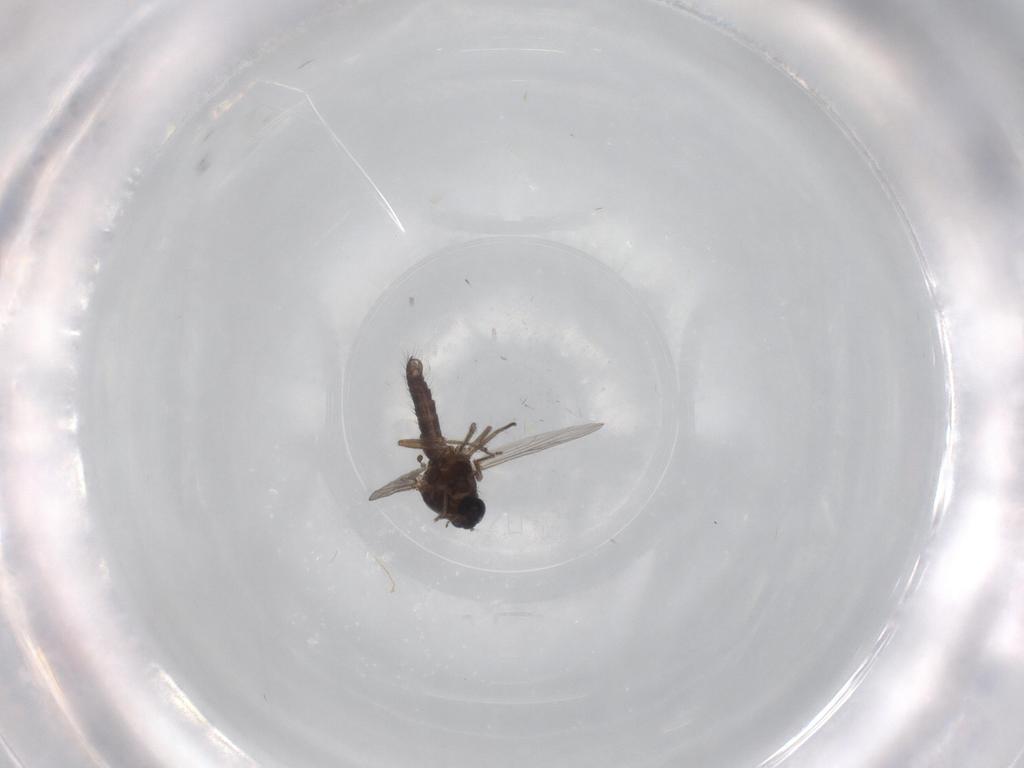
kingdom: Animalia
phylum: Arthropoda
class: Insecta
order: Diptera
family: Ceratopogonidae
